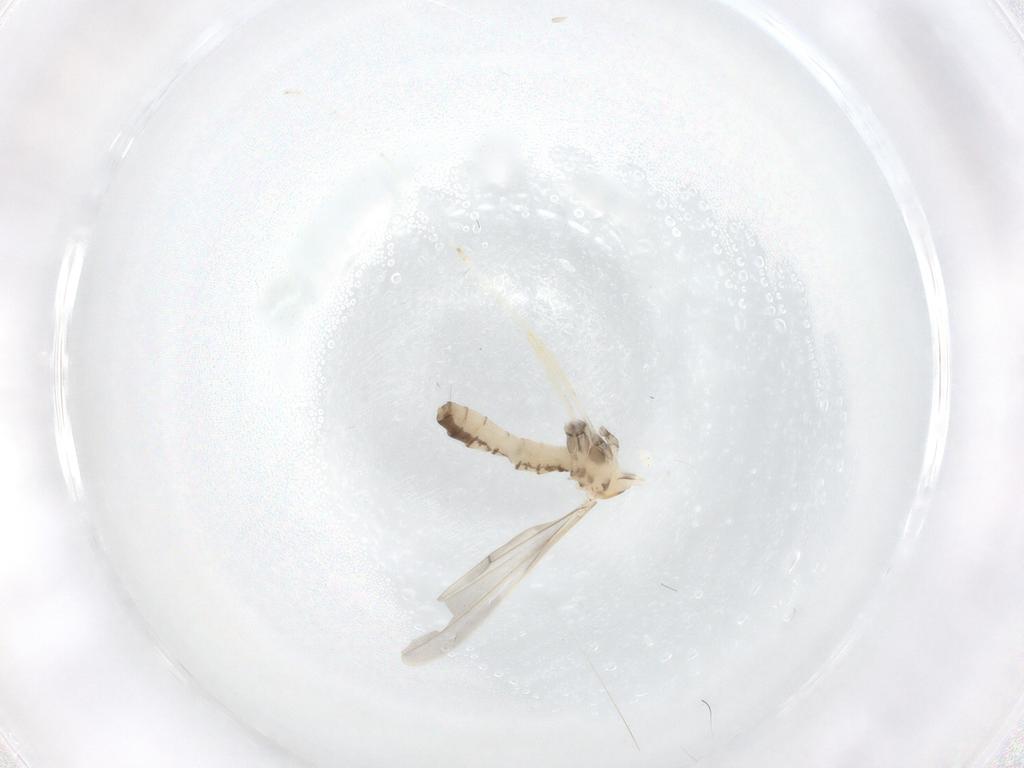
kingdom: Animalia
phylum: Arthropoda
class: Insecta
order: Diptera
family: Cecidomyiidae
